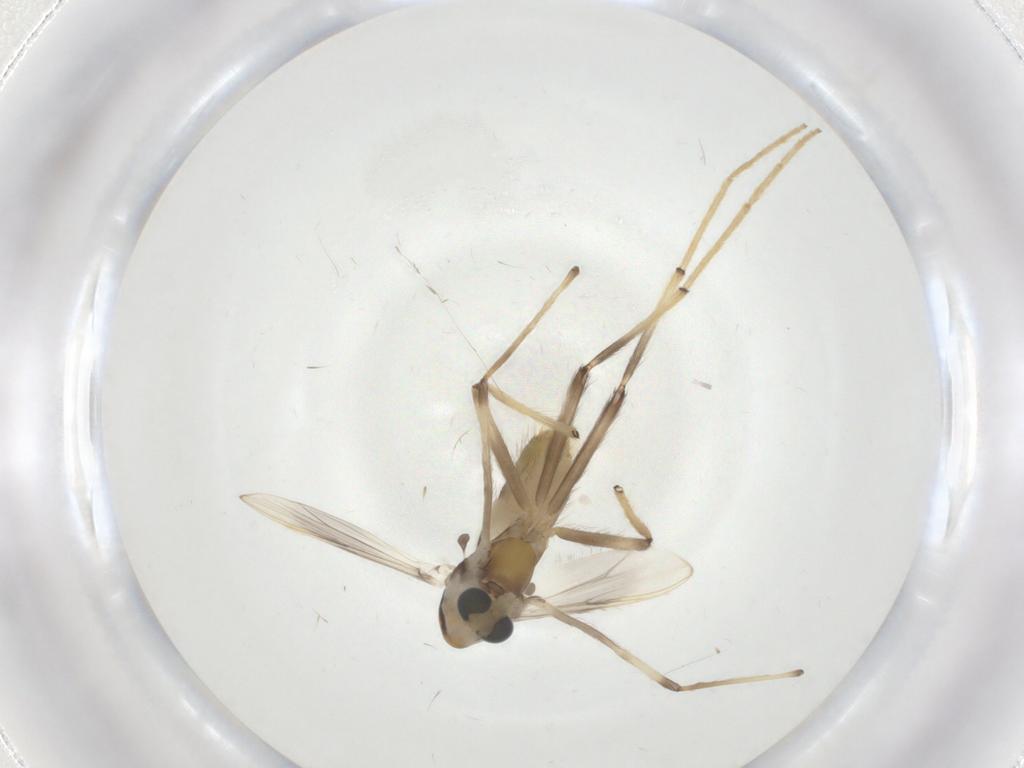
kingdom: Animalia
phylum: Arthropoda
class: Insecta
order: Diptera
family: Chironomidae
